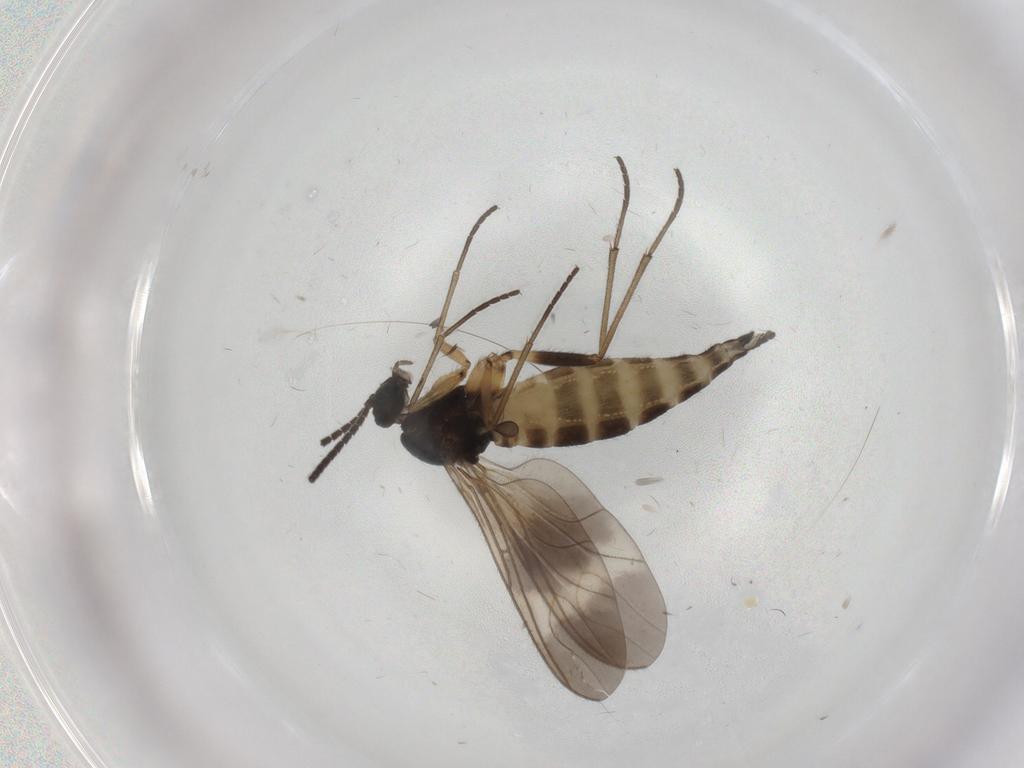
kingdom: Animalia
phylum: Arthropoda
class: Insecta
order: Diptera
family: Sciaridae
